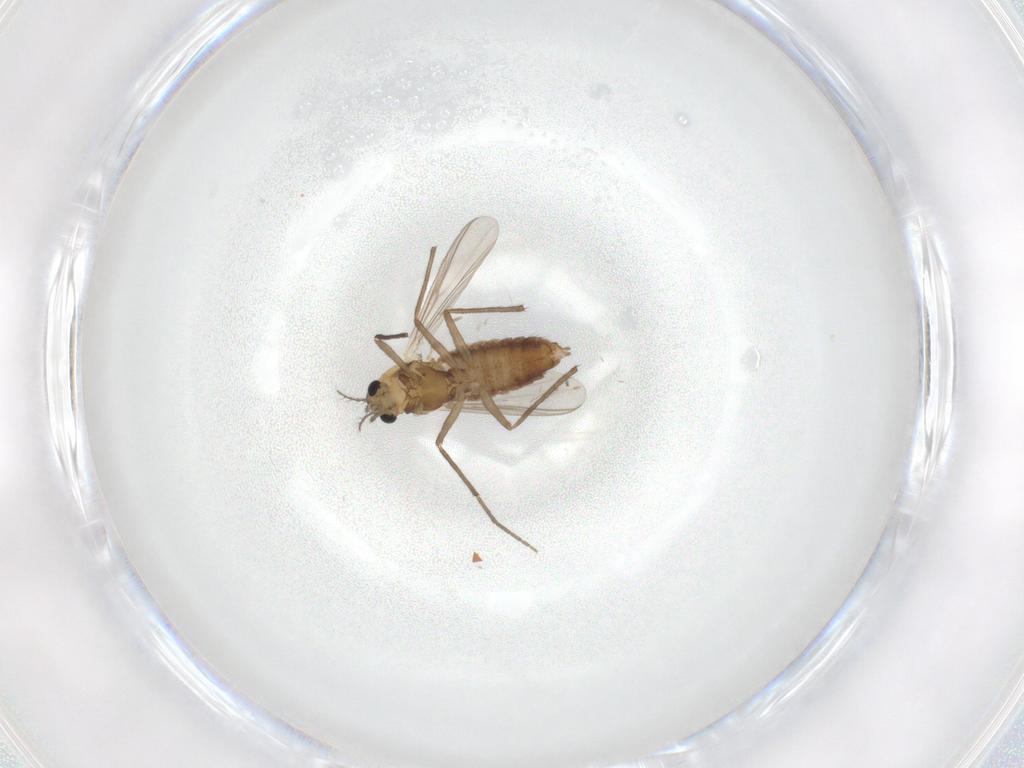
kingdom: Animalia
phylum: Arthropoda
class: Insecta
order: Diptera
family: Chironomidae
